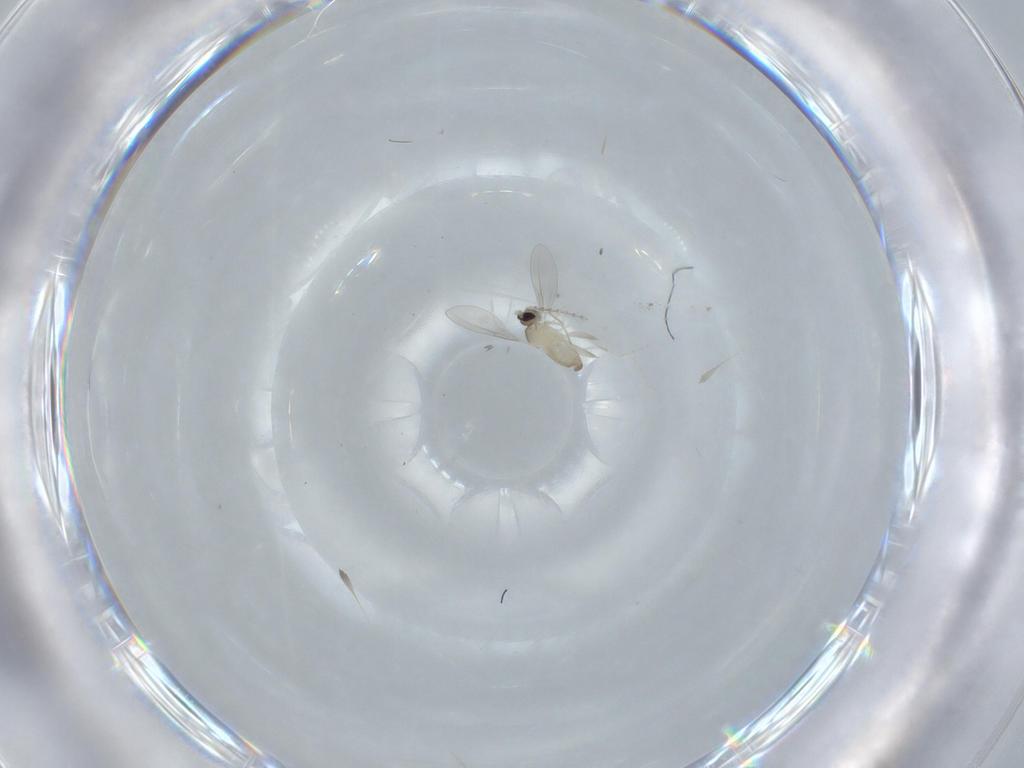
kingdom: Animalia
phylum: Arthropoda
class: Insecta
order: Diptera
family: Cecidomyiidae
